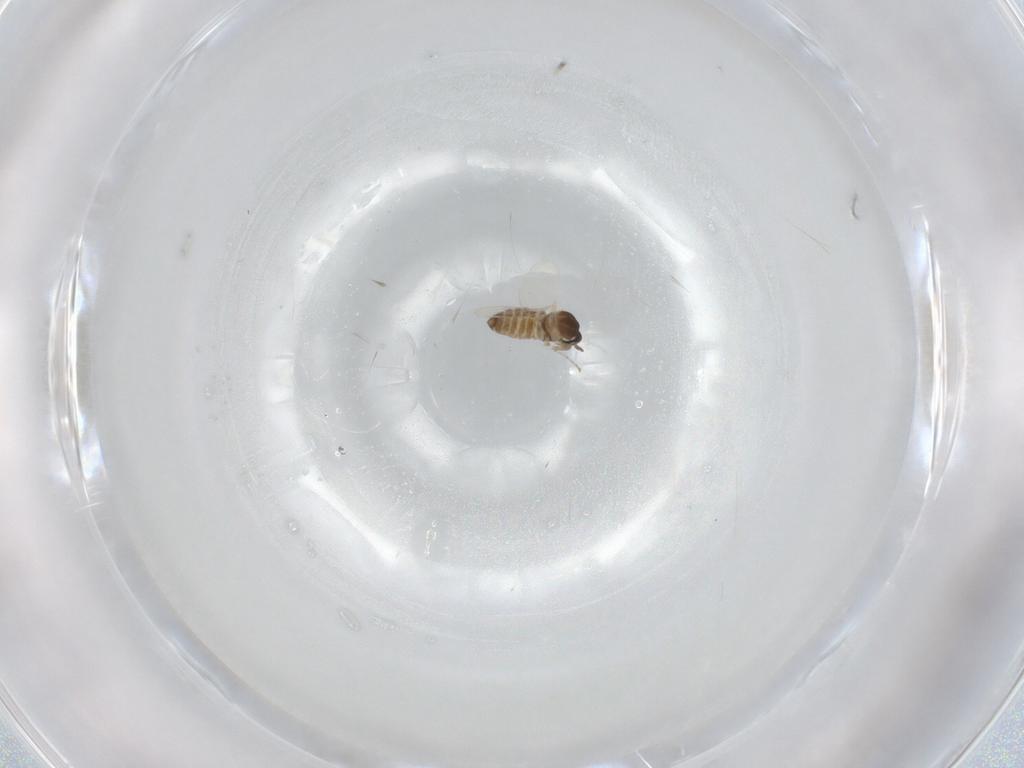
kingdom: Animalia
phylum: Arthropoda
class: Insecta
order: Diptera
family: Cecidomyiidae
